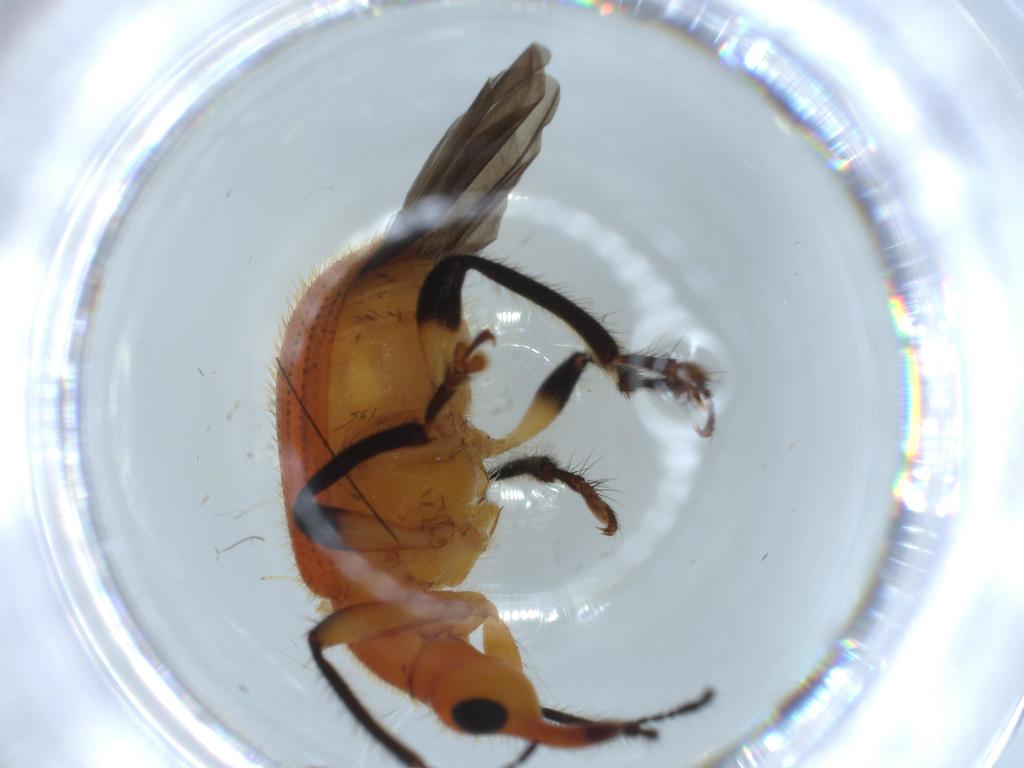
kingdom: Animalia
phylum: Arthropoda
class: Insecta
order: Coleoptera
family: Attelabidae
